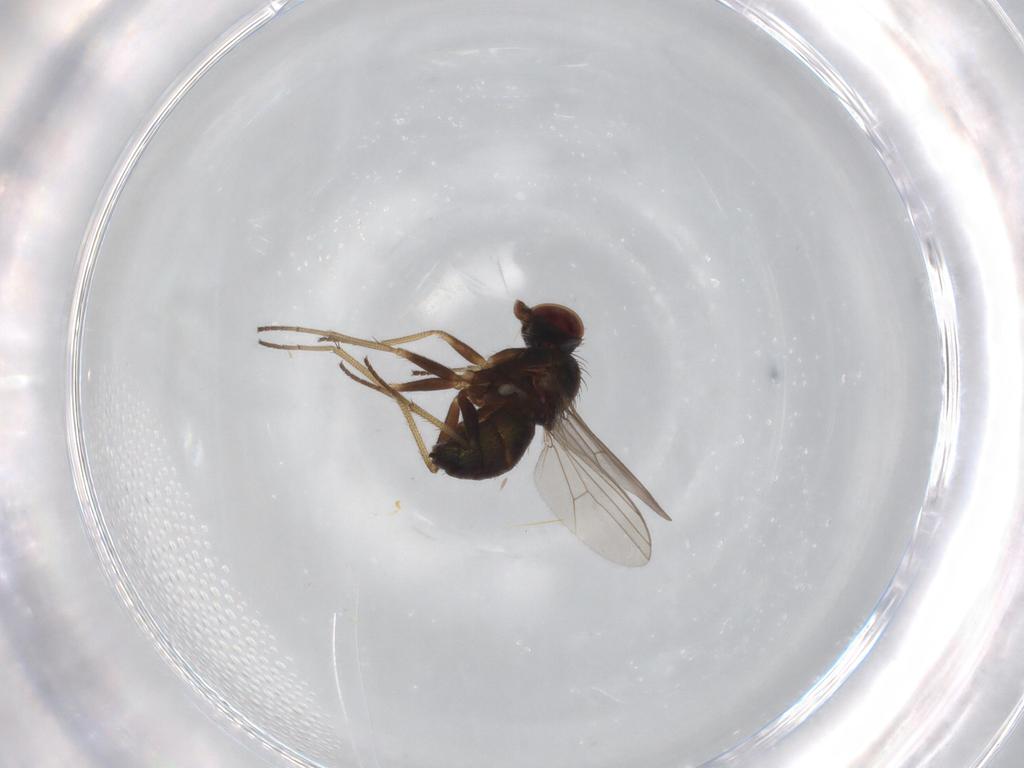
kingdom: Animalia
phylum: Arthropoda
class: Insecta
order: Diptera
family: Dolichopodidae
